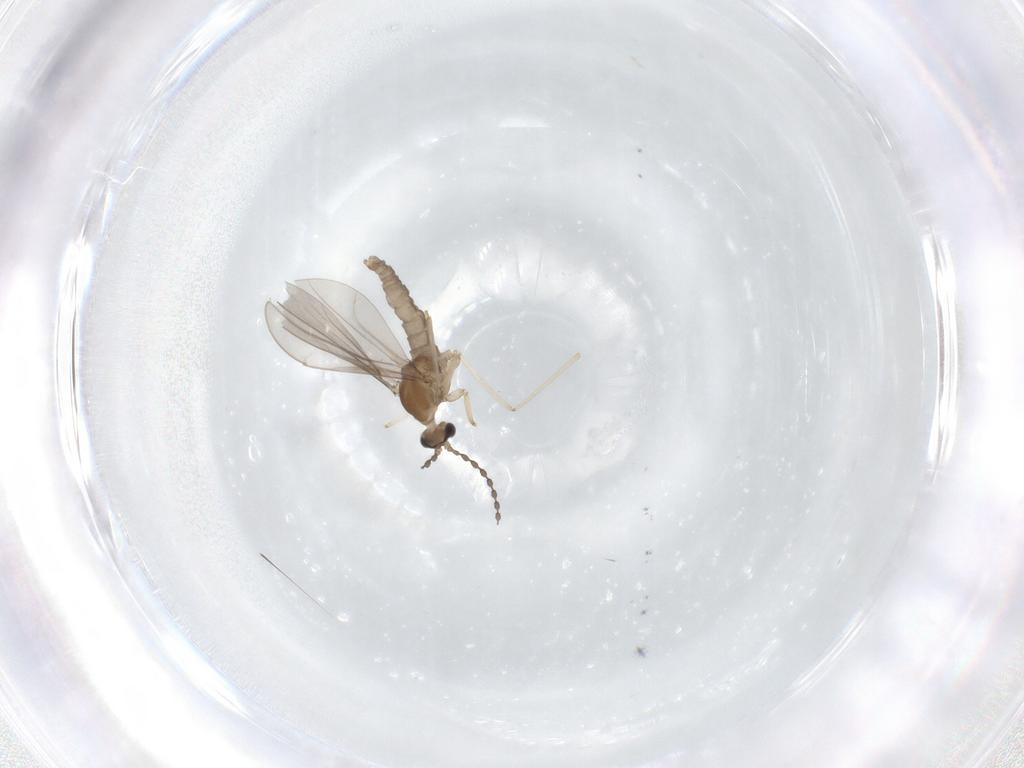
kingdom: Animalia
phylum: Arthropoda
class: Insecta
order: Diptera
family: Cecidomyiidae
